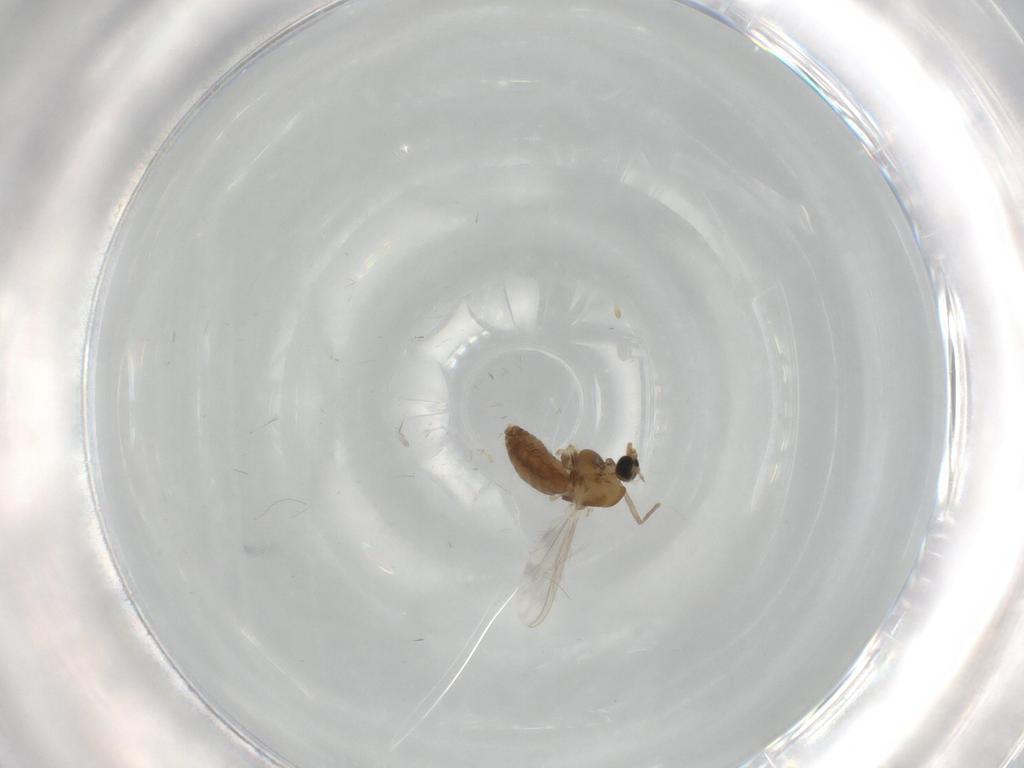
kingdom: Animalia
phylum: Arthropoda
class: Insecta
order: Diptera
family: Chironomidae
